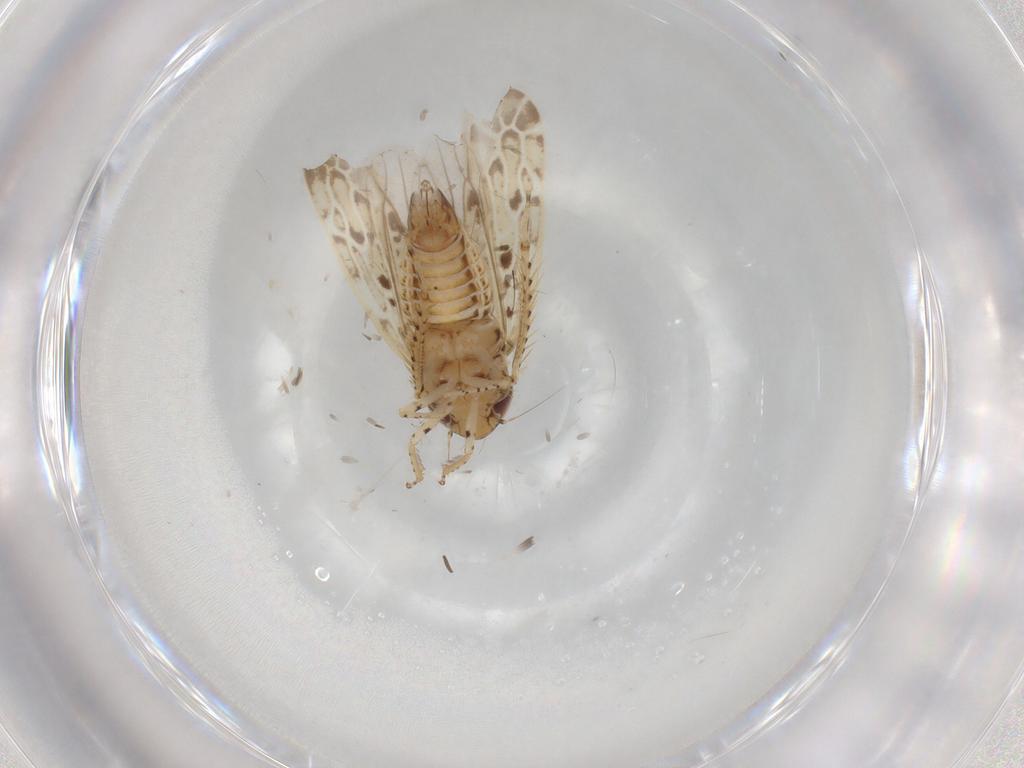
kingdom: Animalia
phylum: Arthropoda
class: Insecta
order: Hemiptera
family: Cicadellidae
